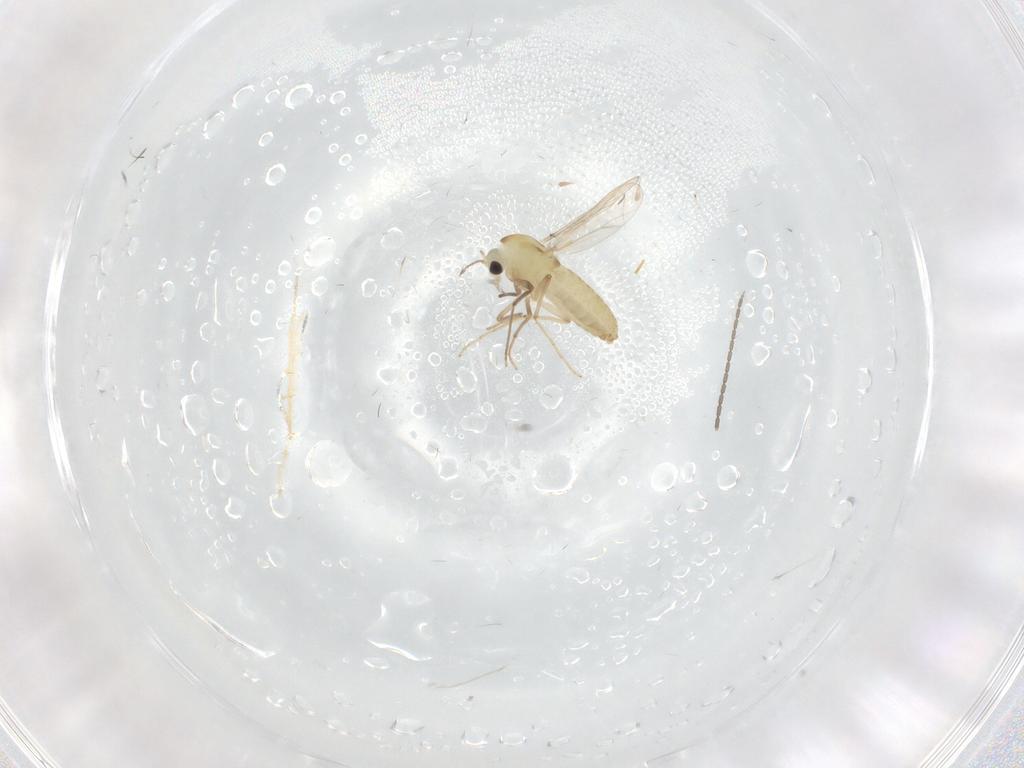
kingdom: Animalia
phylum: Arthropoda
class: Insecta
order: Diptera
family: Chironomidae
